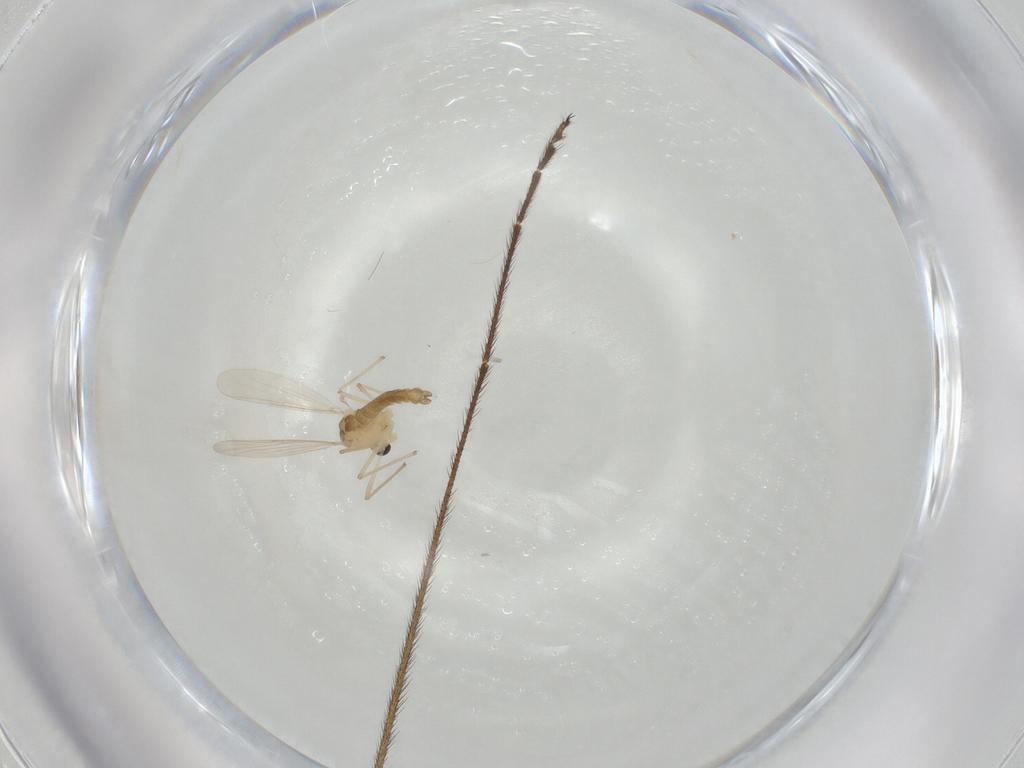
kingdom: Animalia
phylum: Arthropoda
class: Insecta
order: Diptera
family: Chironomidae
